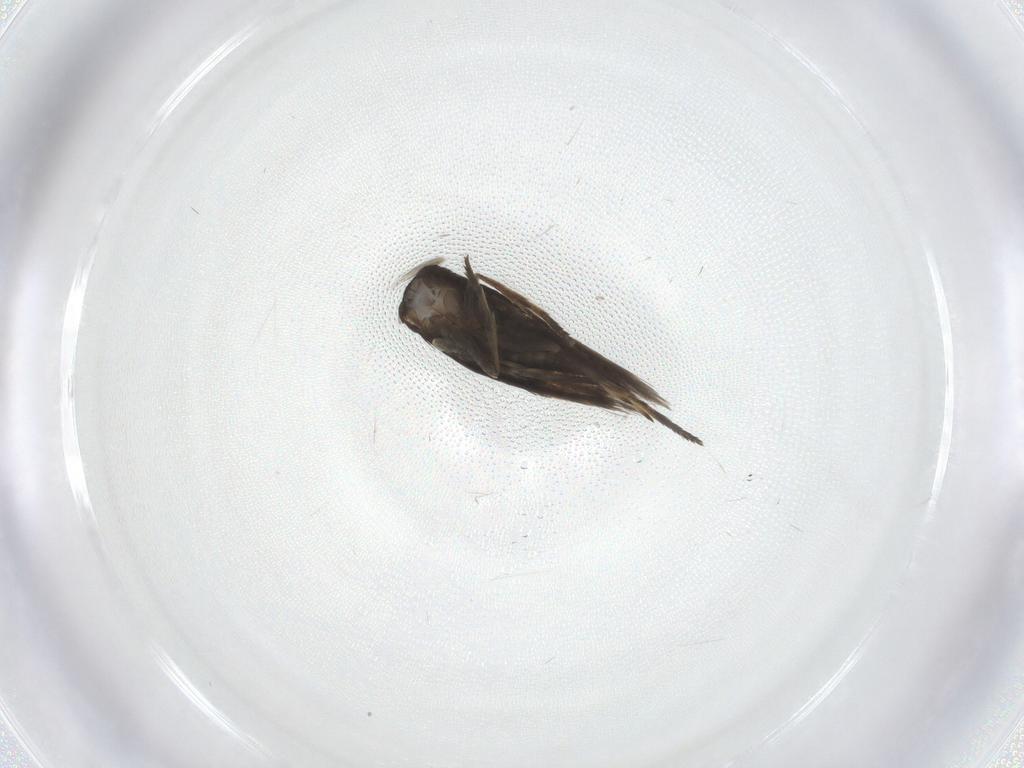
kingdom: Animalia
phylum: Arthropoda
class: Insecta
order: Lepidoptera
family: Nepticulidae
